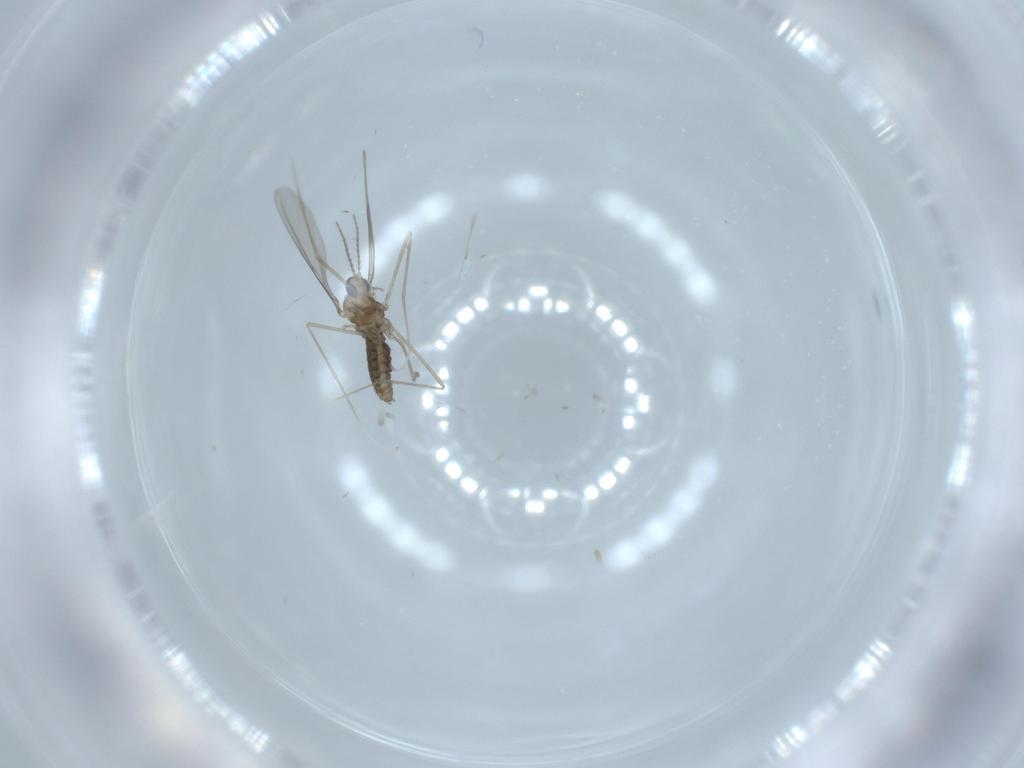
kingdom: Animalia
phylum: Arthropoda
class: Insecta
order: Diptera
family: Cecidomyiidae
